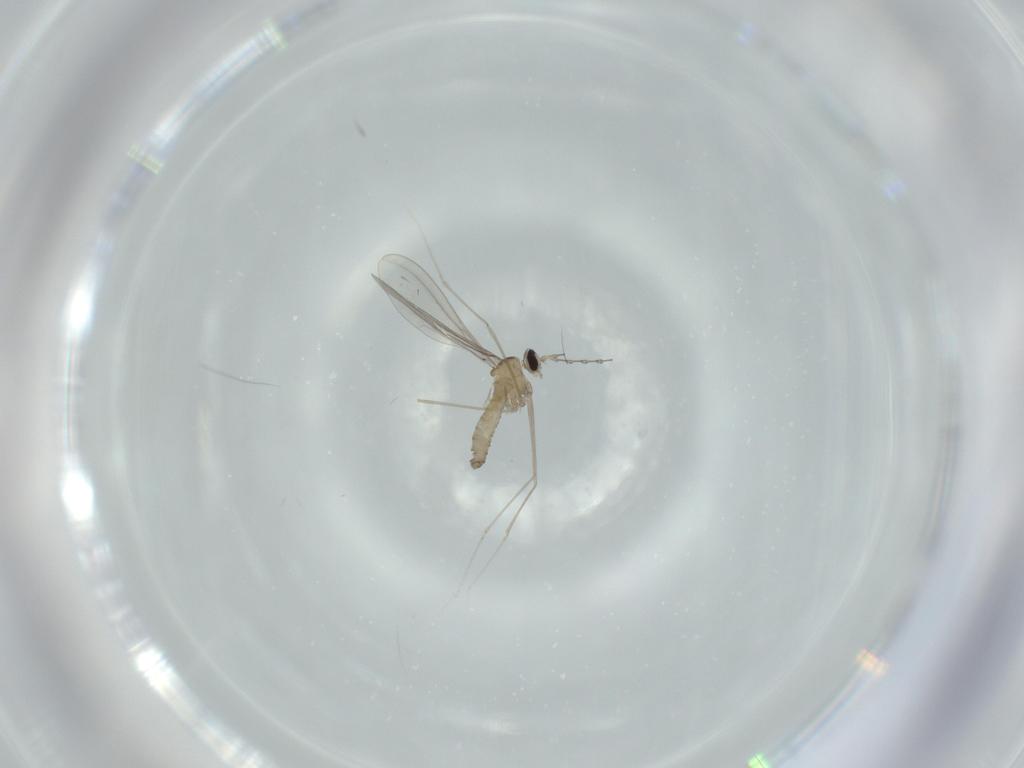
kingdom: Animalia
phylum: Arthropoda
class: Insecta
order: Diptera
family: Cecidomyiidae
